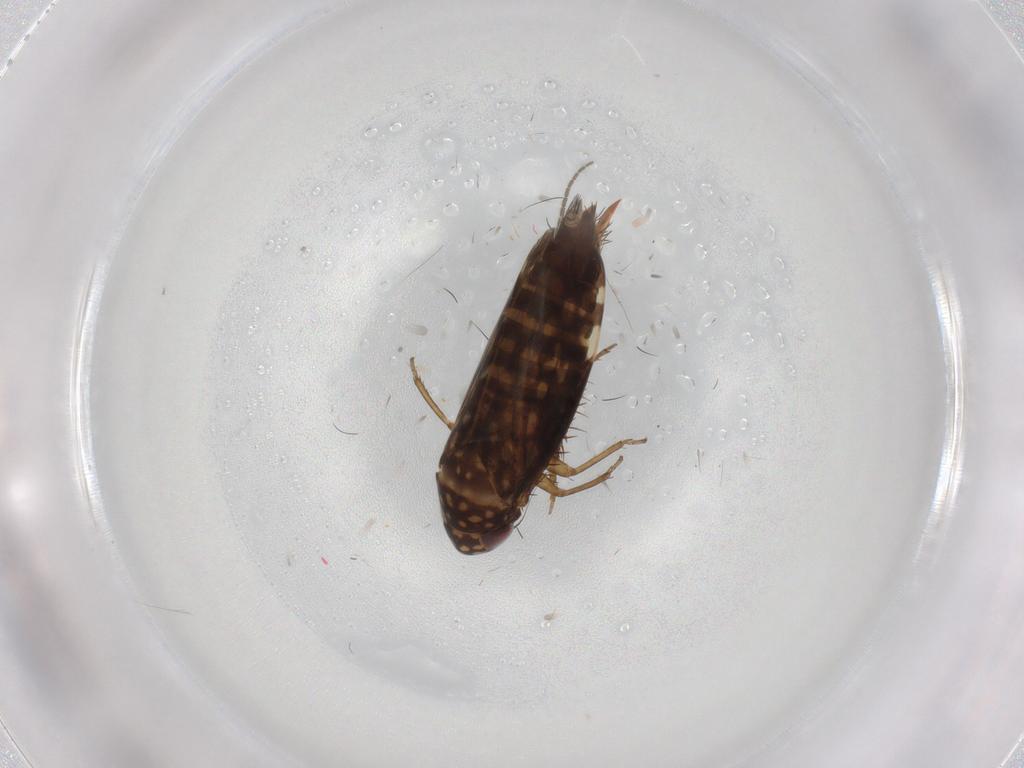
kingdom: Animalia
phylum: Arthropoda
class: Insecta
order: Hemiptera
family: Cicadellidae
